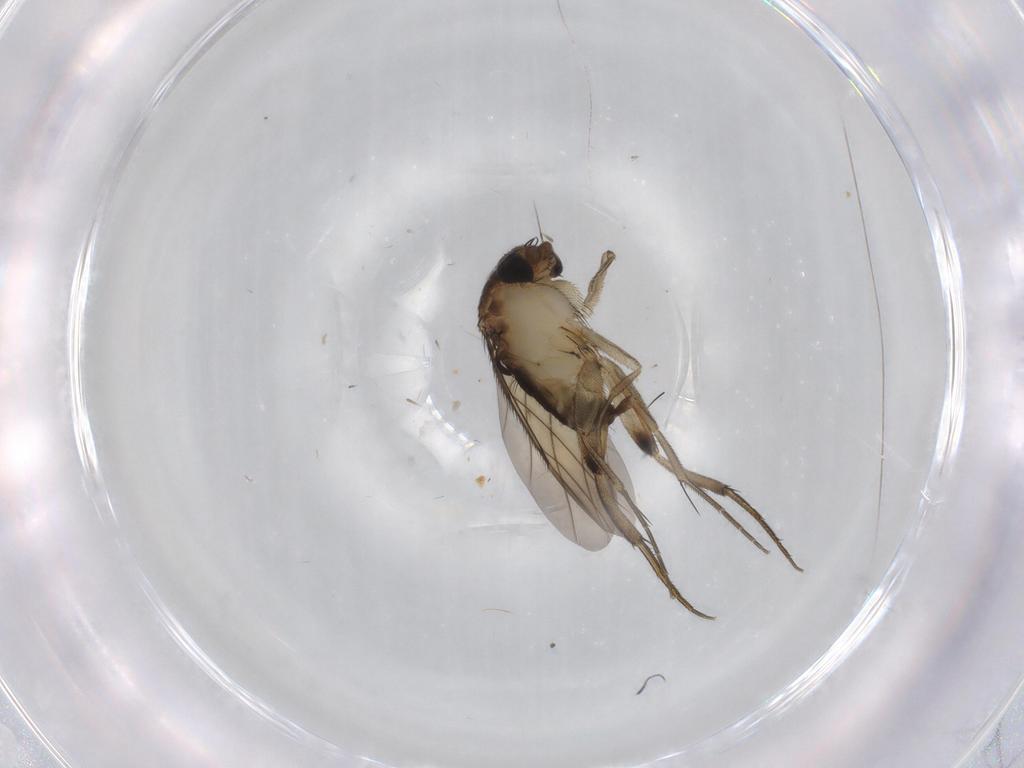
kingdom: Animalia
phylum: Arthropoda
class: Insecta
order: Diptera
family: Phoridae
